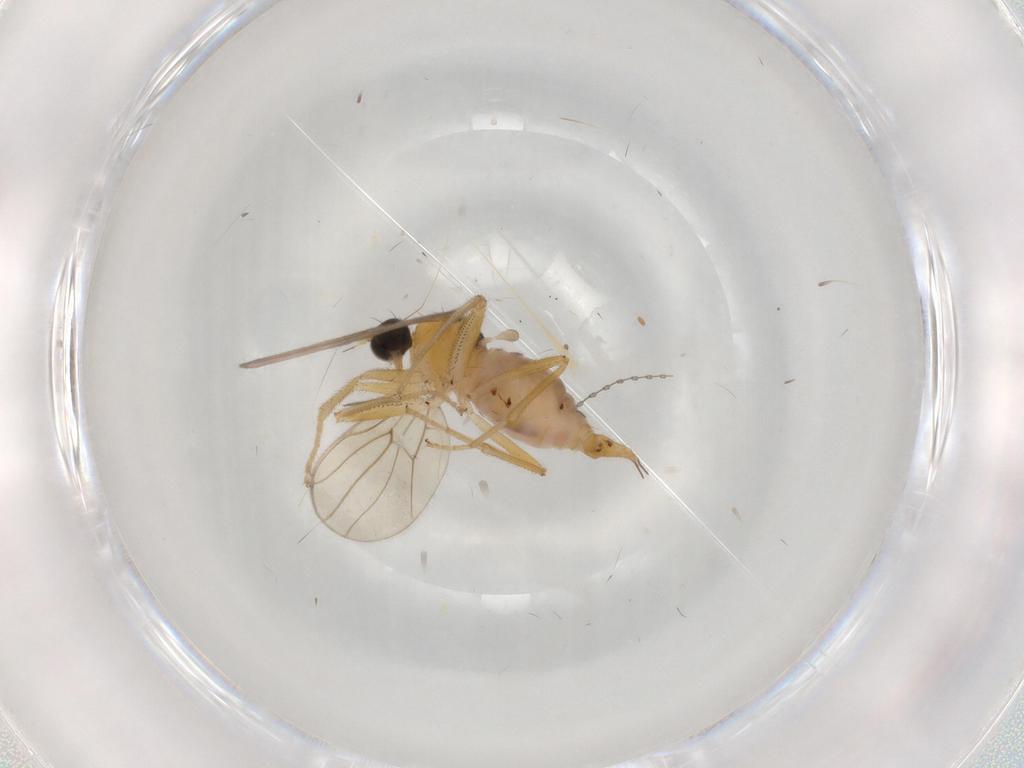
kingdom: Animalia
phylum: Arthropoda
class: Insecta
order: Diptera
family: Hybotidae
